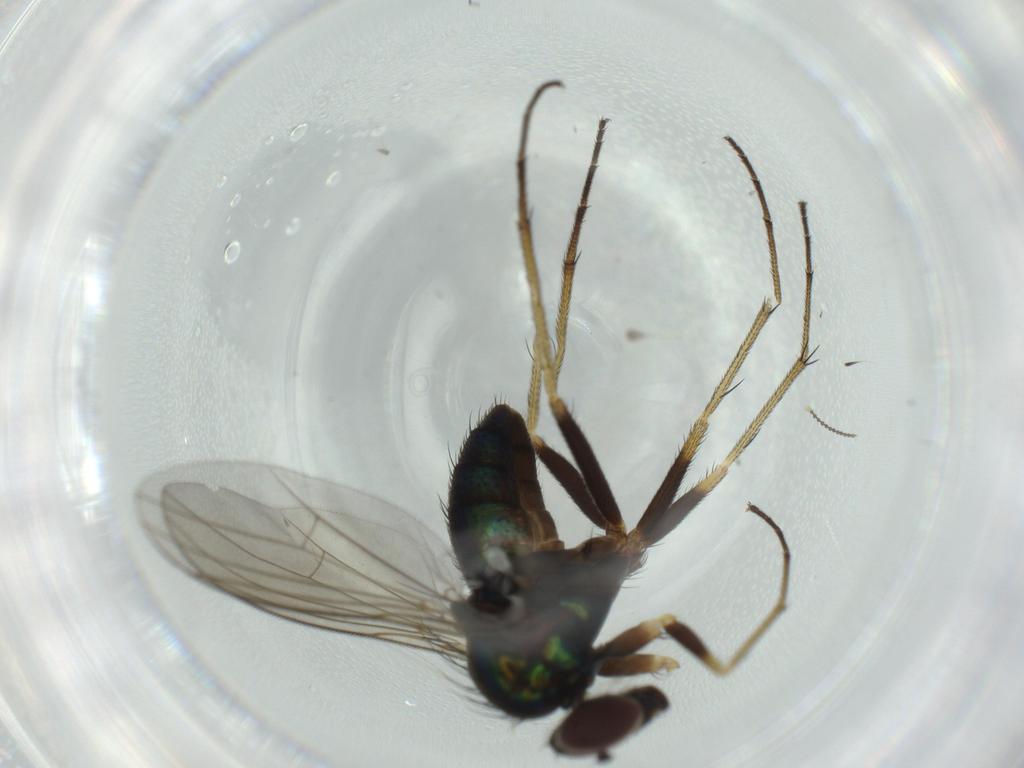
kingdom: Animalia
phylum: Arthropoda
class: Insecta
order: Diptera
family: Dolichopodidae
